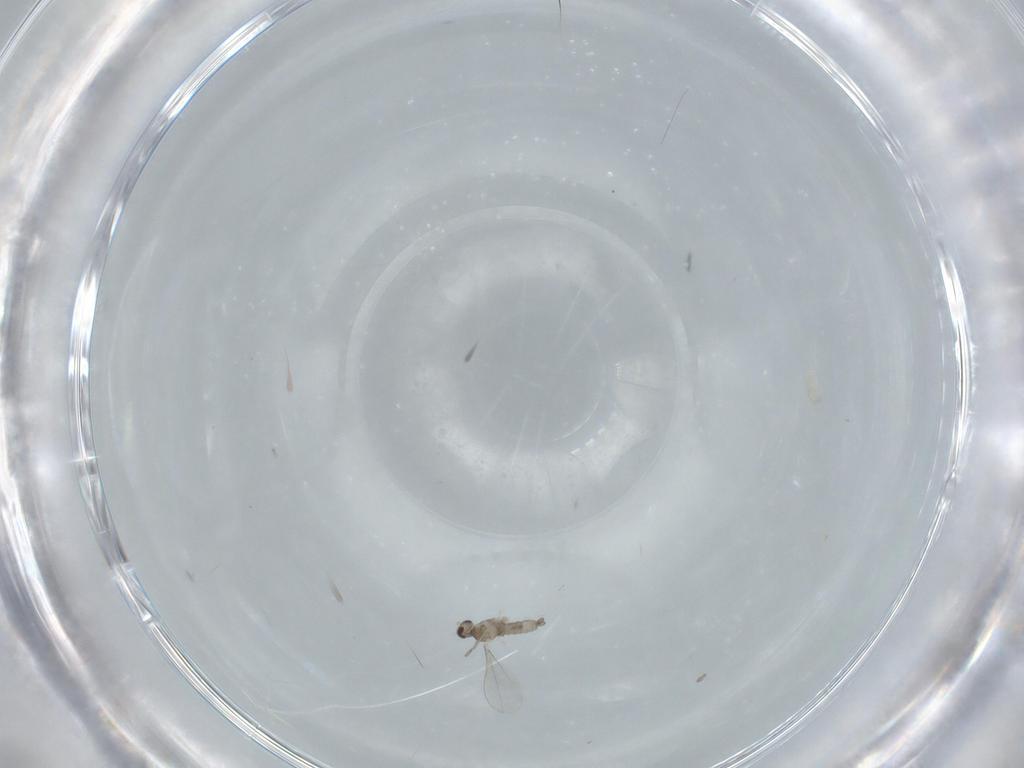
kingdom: Animalia
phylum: Arthropoda
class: Insecta
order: Diptera
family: Cecidomyiidae
